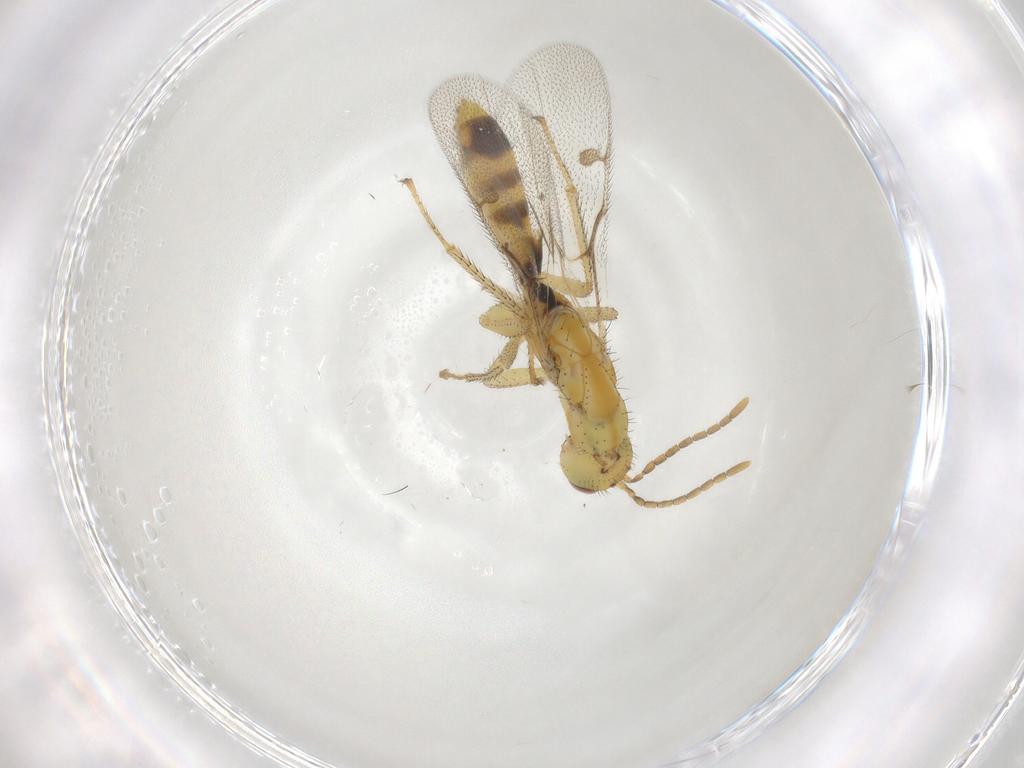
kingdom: Animalia
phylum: Arthropoda
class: Insecta
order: Hymenoptera
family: Megastigmidae
